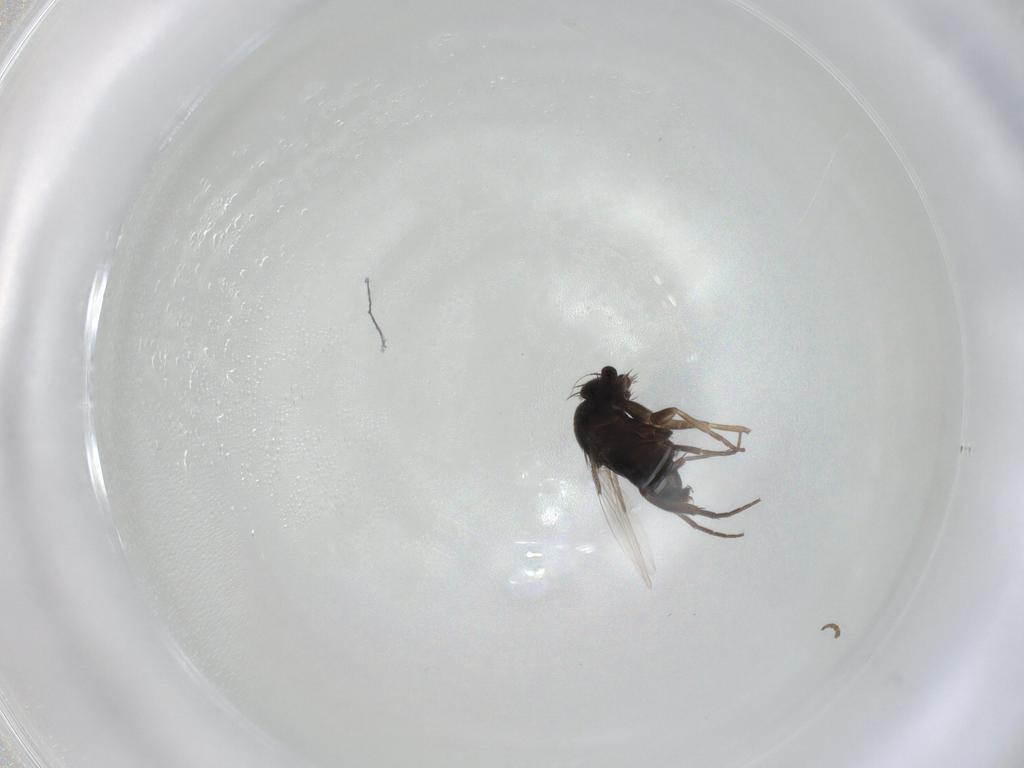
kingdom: Animalia
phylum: Arthropoda
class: Insecta
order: Diptera
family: Phoridae
